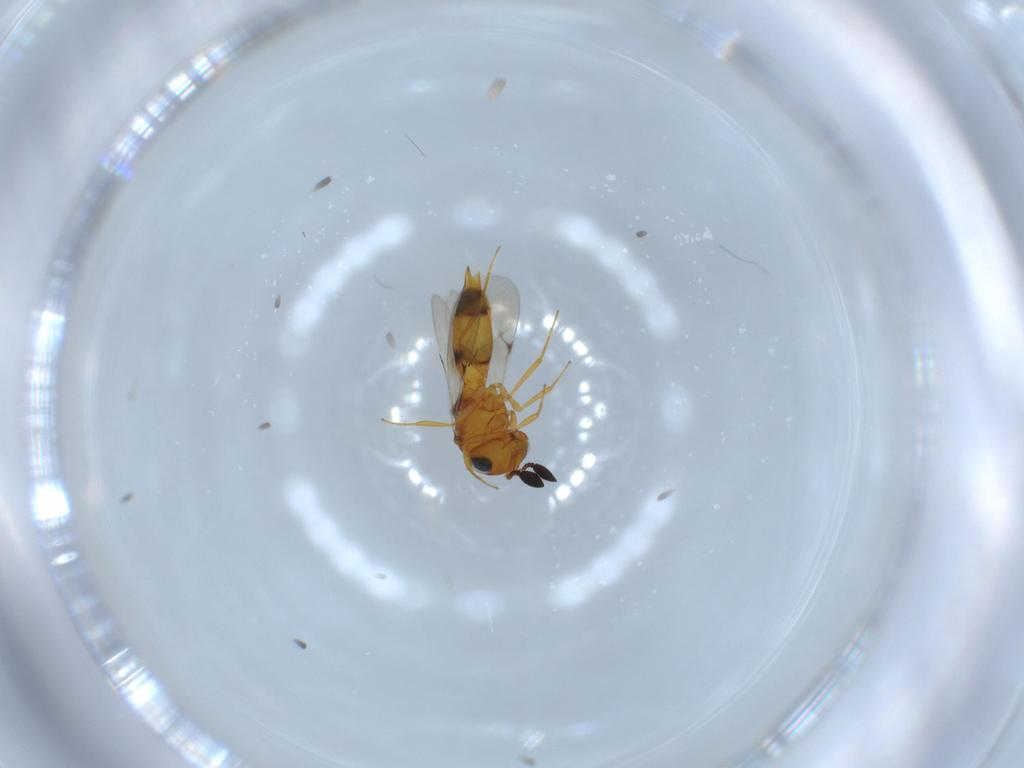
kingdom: Animalia
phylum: Arthropoda
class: Insecta
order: Hymenoptera
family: Scelionidae
